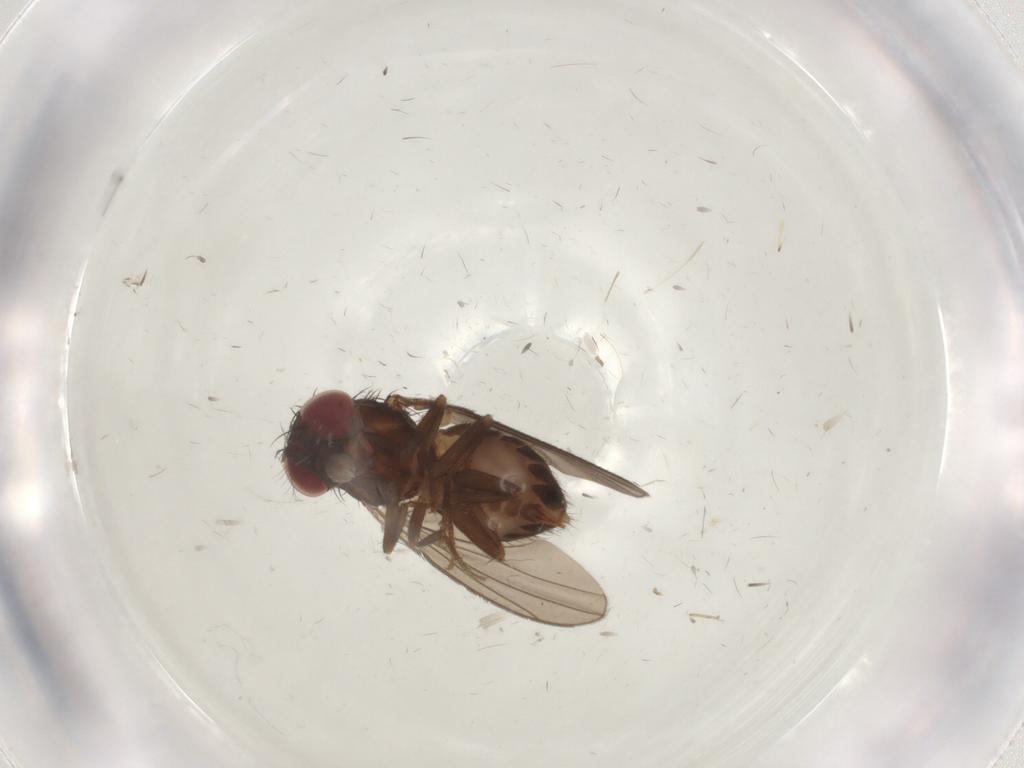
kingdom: Animalia
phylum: Arthropoda
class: Insecta
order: Diptera
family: Drosophilidae
